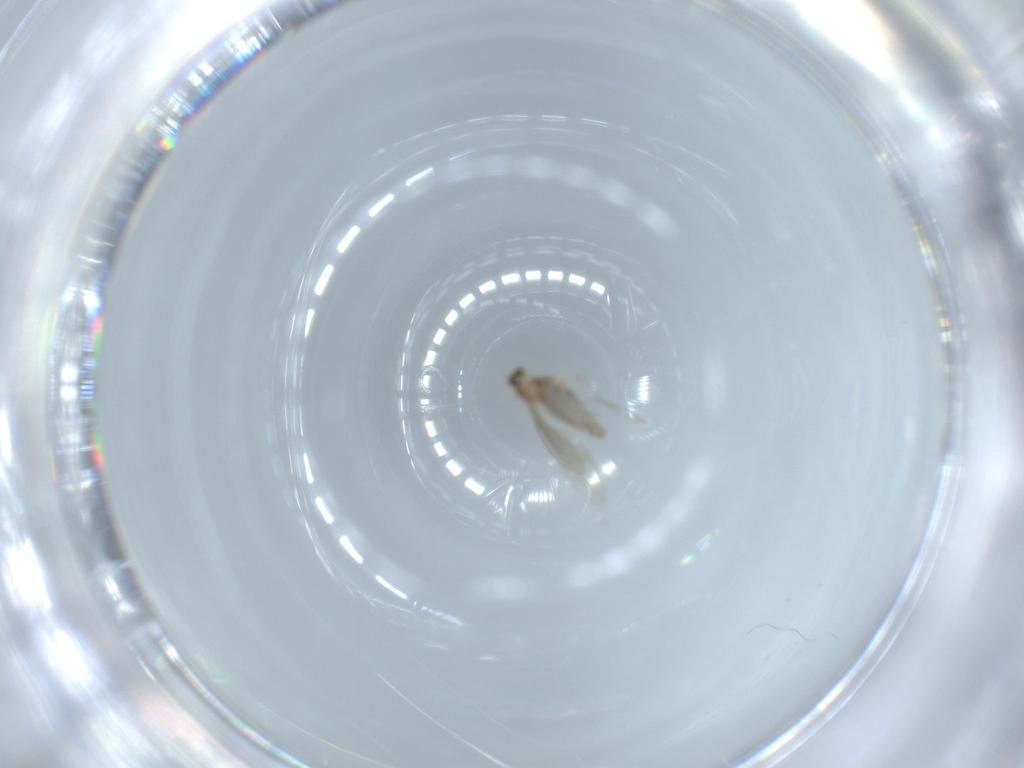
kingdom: Animalia
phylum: Arthropoda
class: Insecta
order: Diptera
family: Cecidomyiidae
